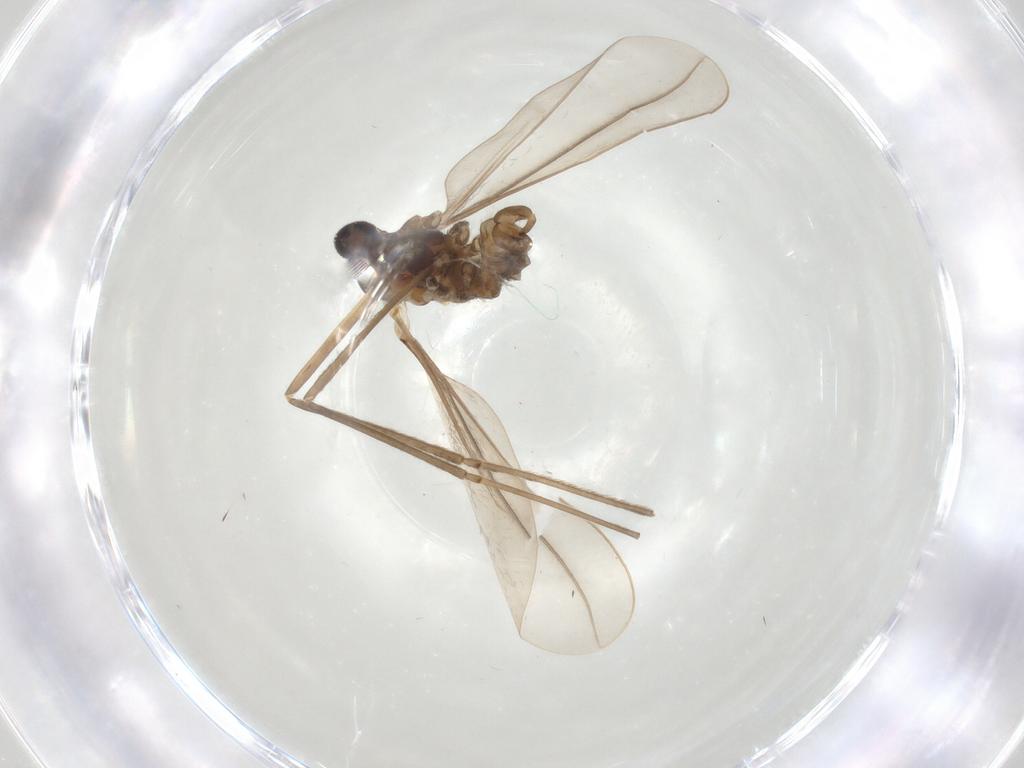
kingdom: Animalia
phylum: Arthropoda
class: Insecta
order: Diptera
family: Cecidomyiidae
